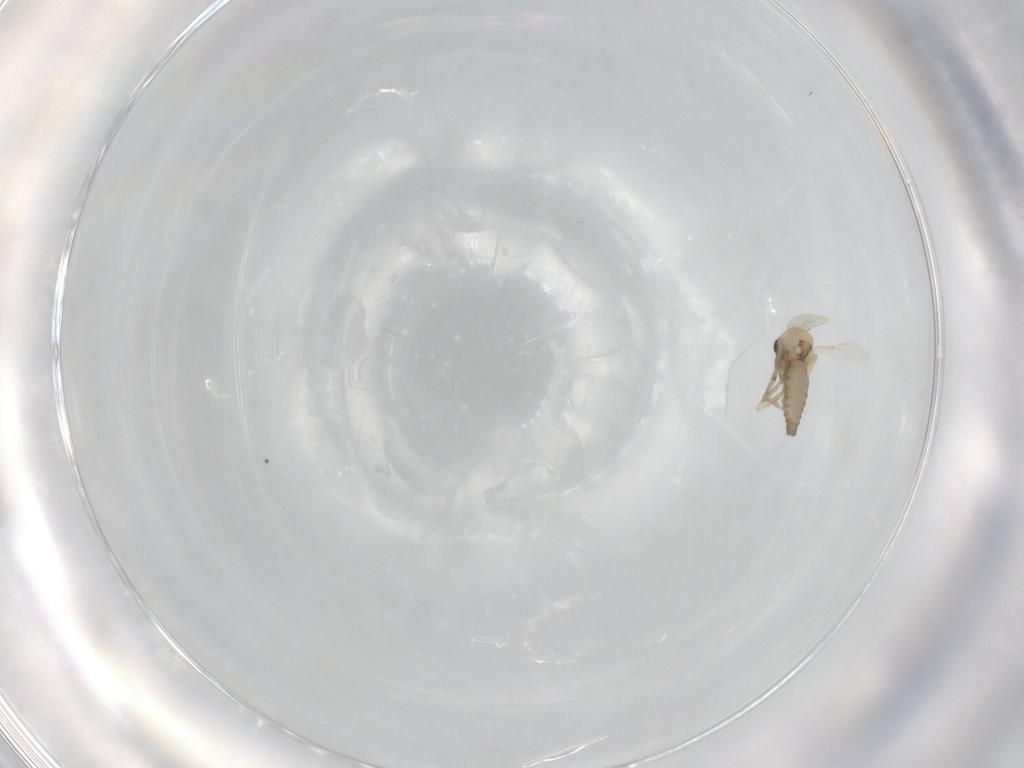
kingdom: Animalia
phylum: Arthropoda
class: Insecta
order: Diptera
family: Ceratopogonidae
